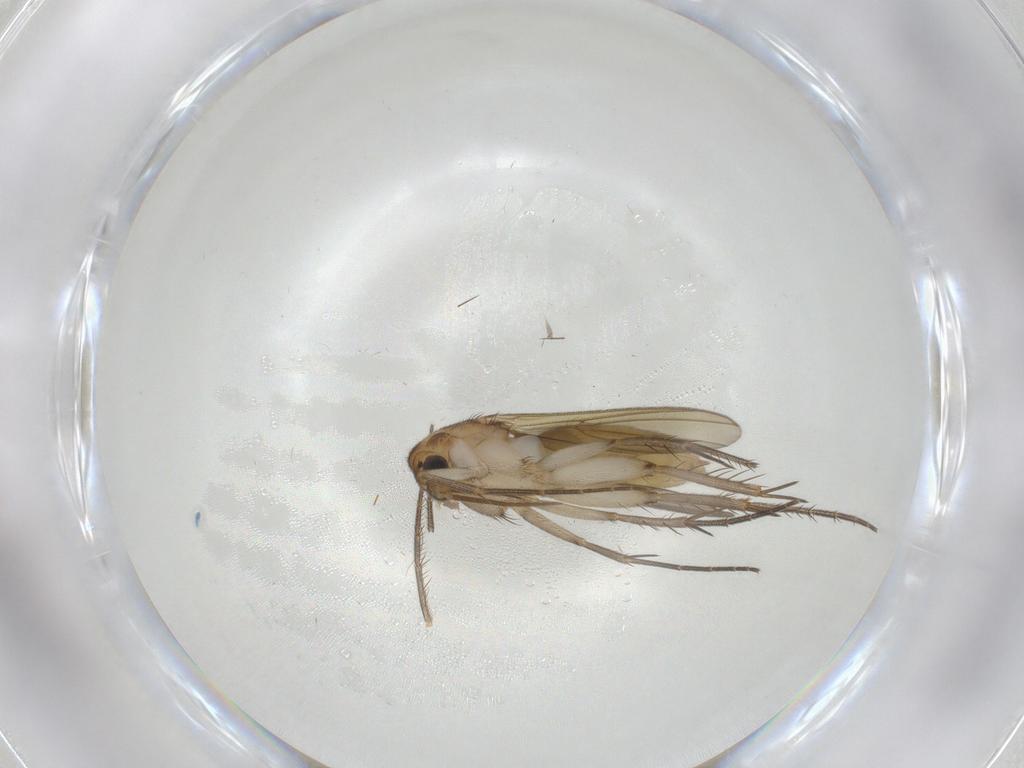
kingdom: Animalia
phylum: Arthropoda
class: Insecta
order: Diptera
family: Mycetophilidae
